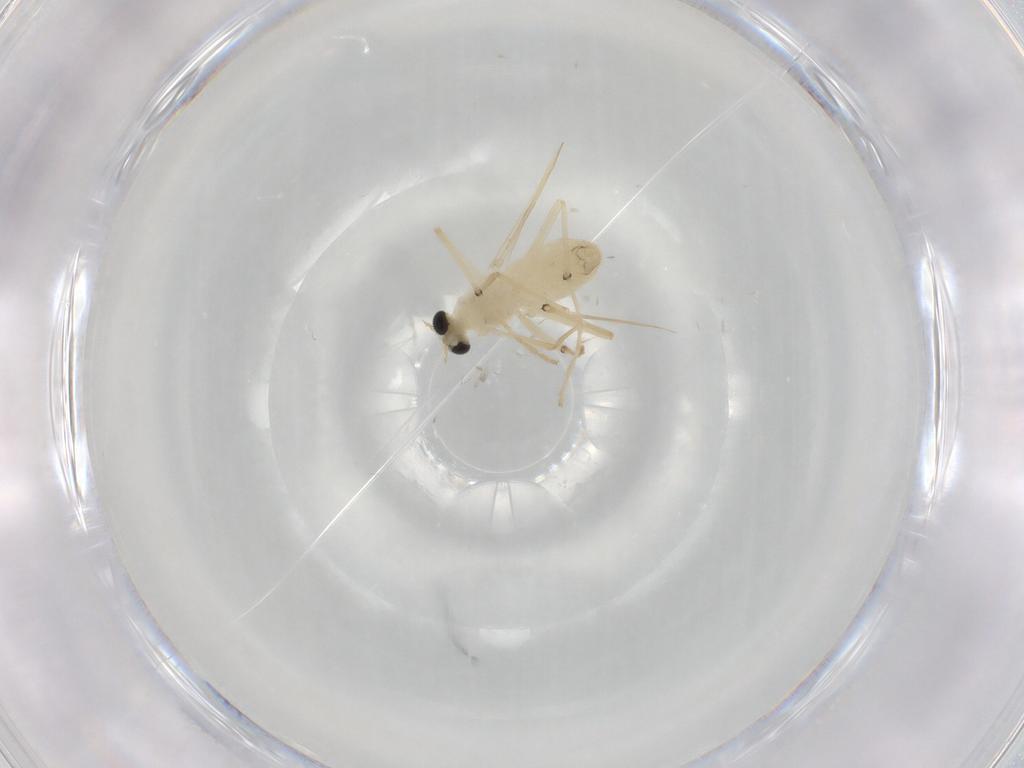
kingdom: Animalia
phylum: Arthropoda
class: Insecta
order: Diptera
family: Chironomidae
